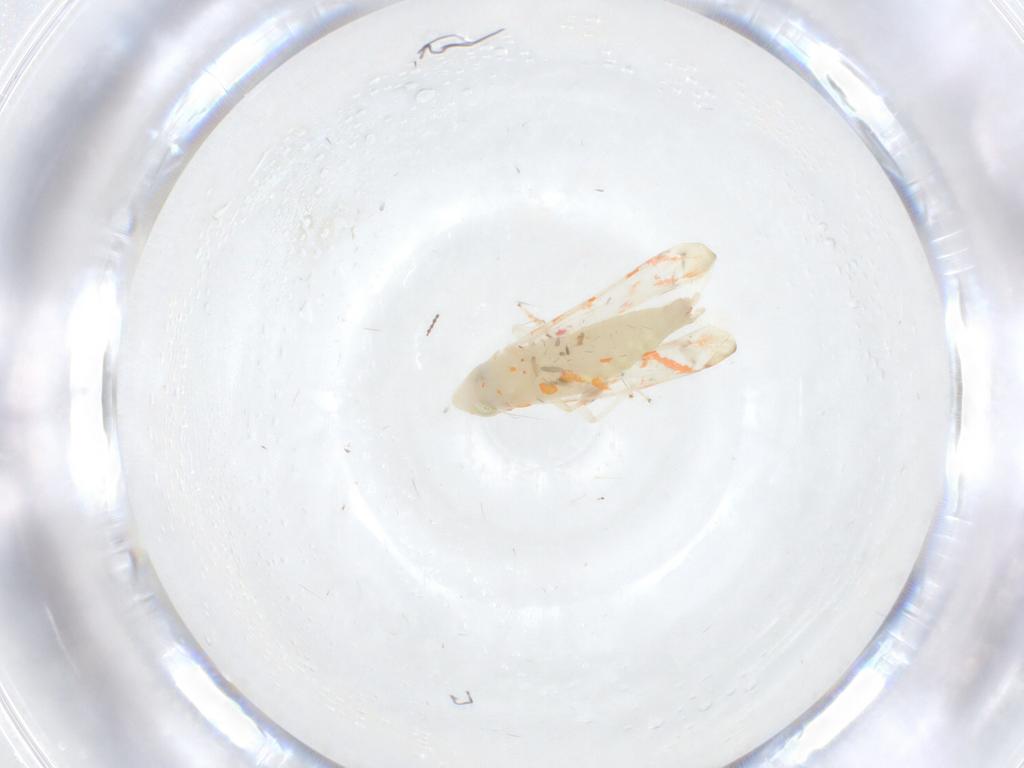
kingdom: Animalia
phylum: Arthropoda
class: Insecta
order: Hemiptera
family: Cicadellidae
